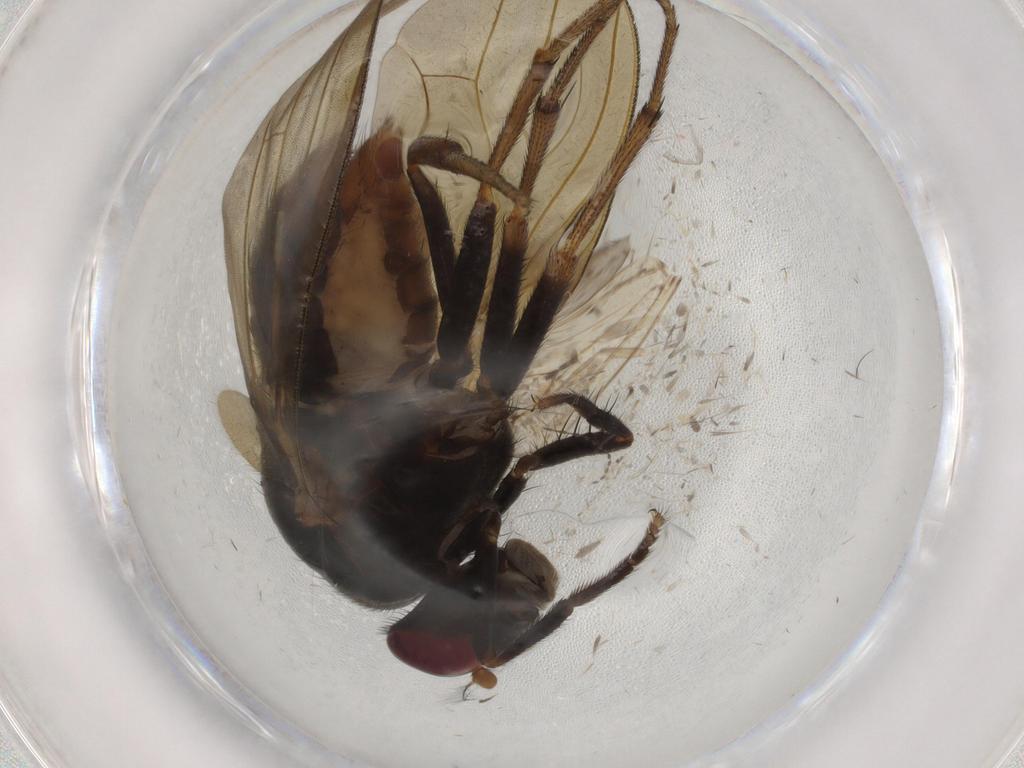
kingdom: Animalia
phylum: Arthropoda
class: Insecta
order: Diptera
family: Sciaridae
